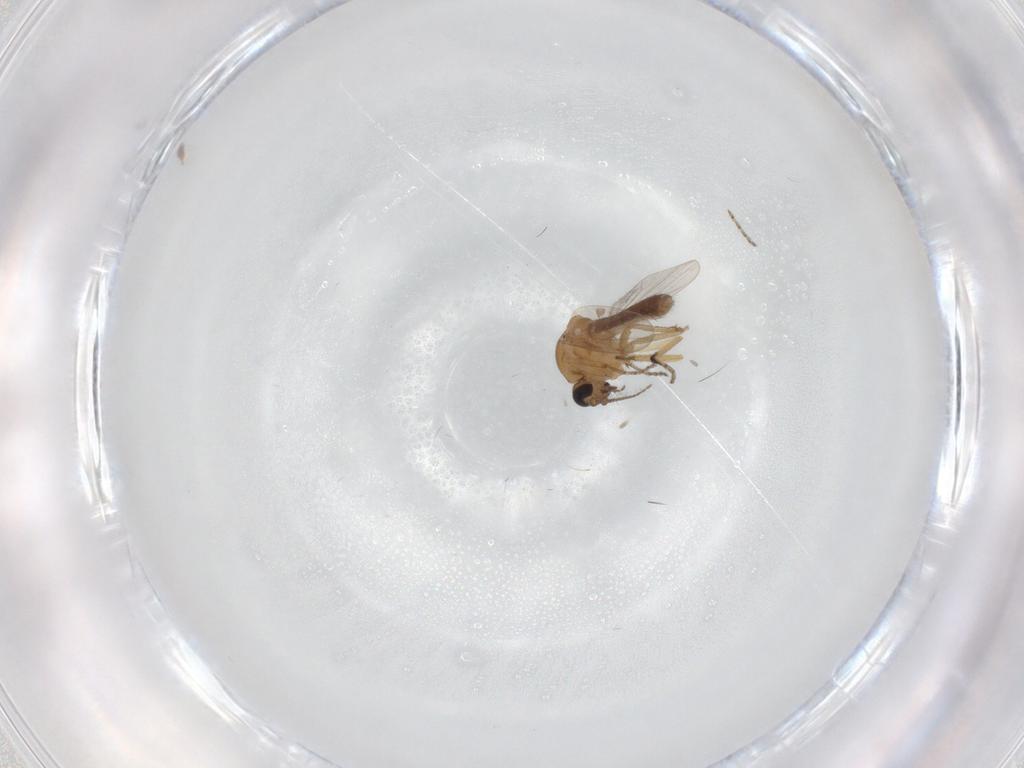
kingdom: Animalia
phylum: Arthropoda
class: Insecta
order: Diptera
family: Ceratopogonidae
